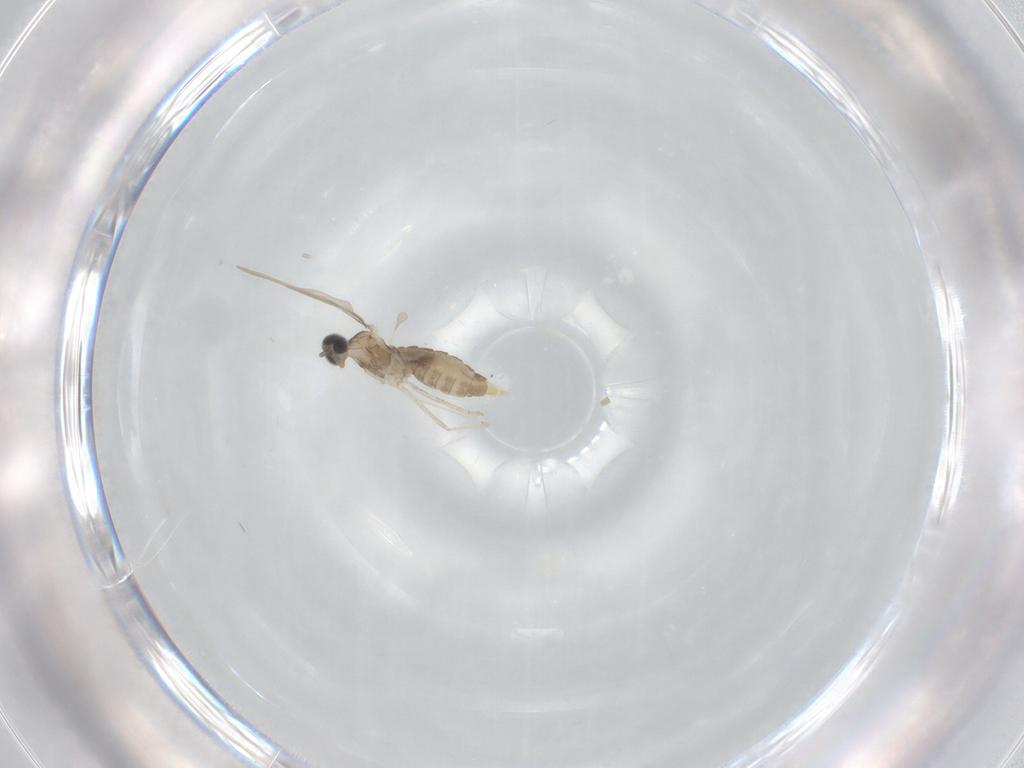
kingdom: Animalia
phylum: Arthropoda
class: Insecta
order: Diptera
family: Cecidomyiidae
